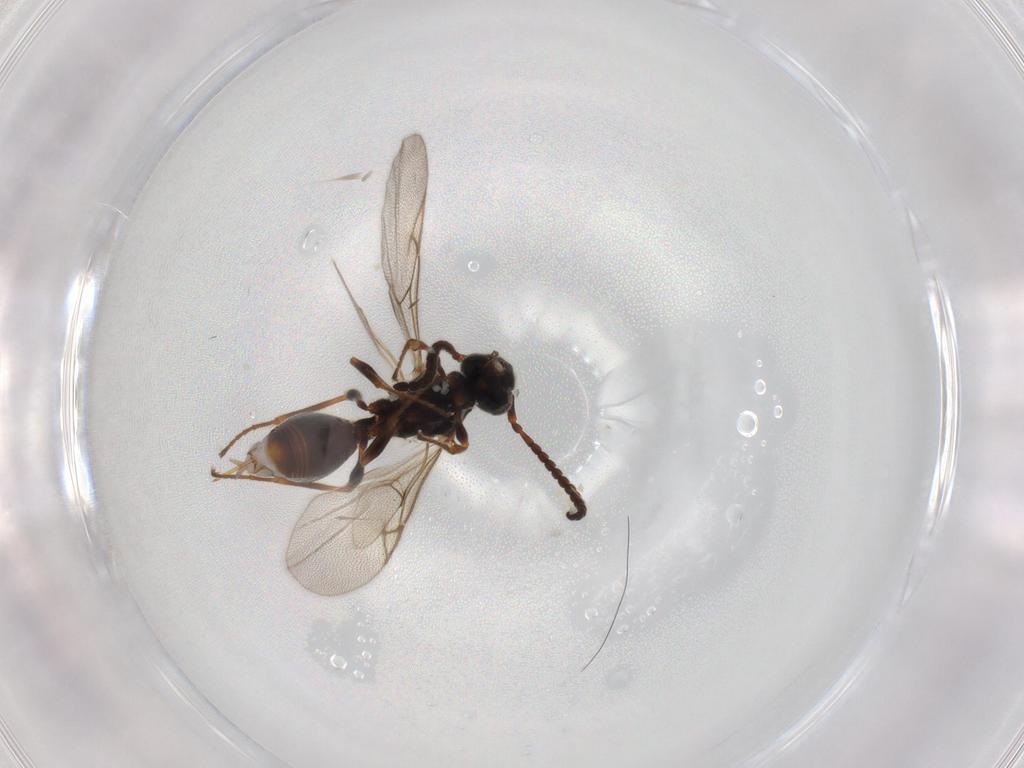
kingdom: Animalia
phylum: Arthropoda
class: Insecta
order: Hymenoptera
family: Diapriidae
